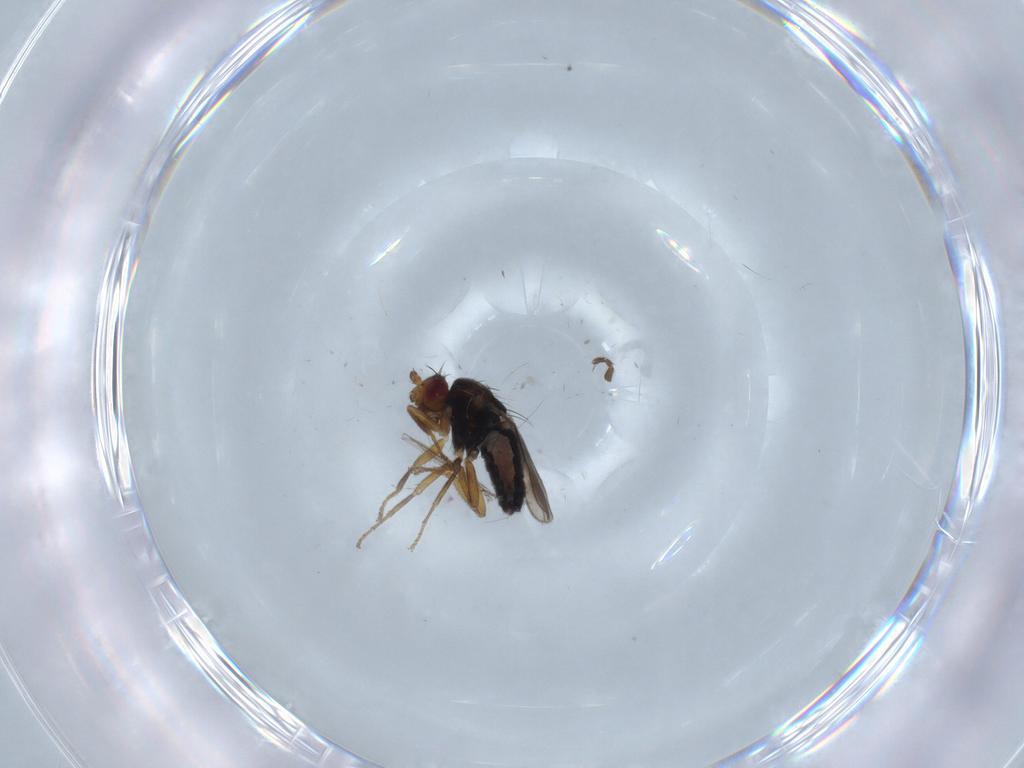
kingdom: Animalia
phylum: Arthropoda
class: Insecta
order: Diptera
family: Sphaeroceridae
